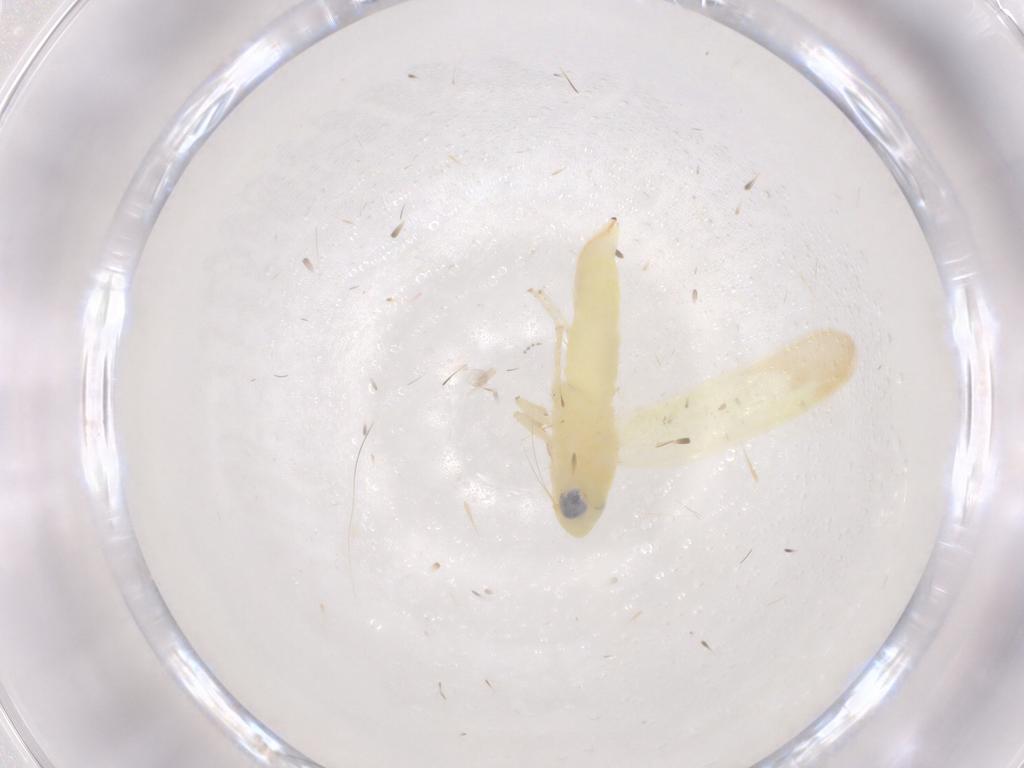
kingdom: Animalia
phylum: Arthropoda
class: Insecta
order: Hemiptera
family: Cicadellidae
